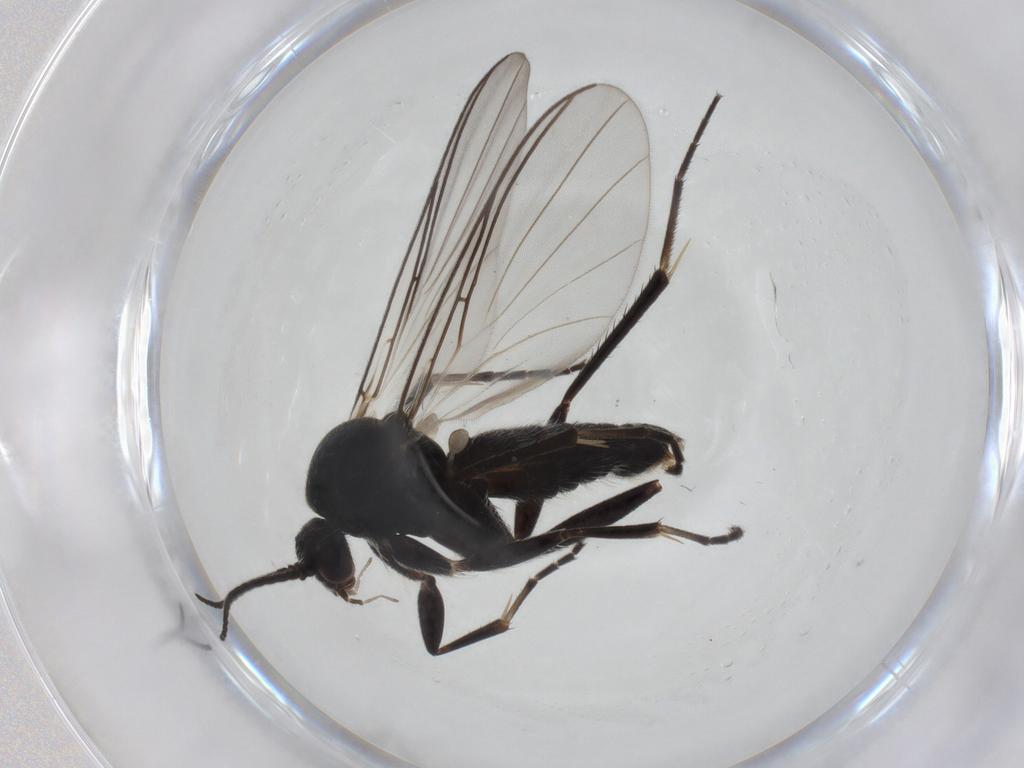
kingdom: Animalia
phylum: Arthropoda
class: Insecta
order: Diptera
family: Mycetophilidae
